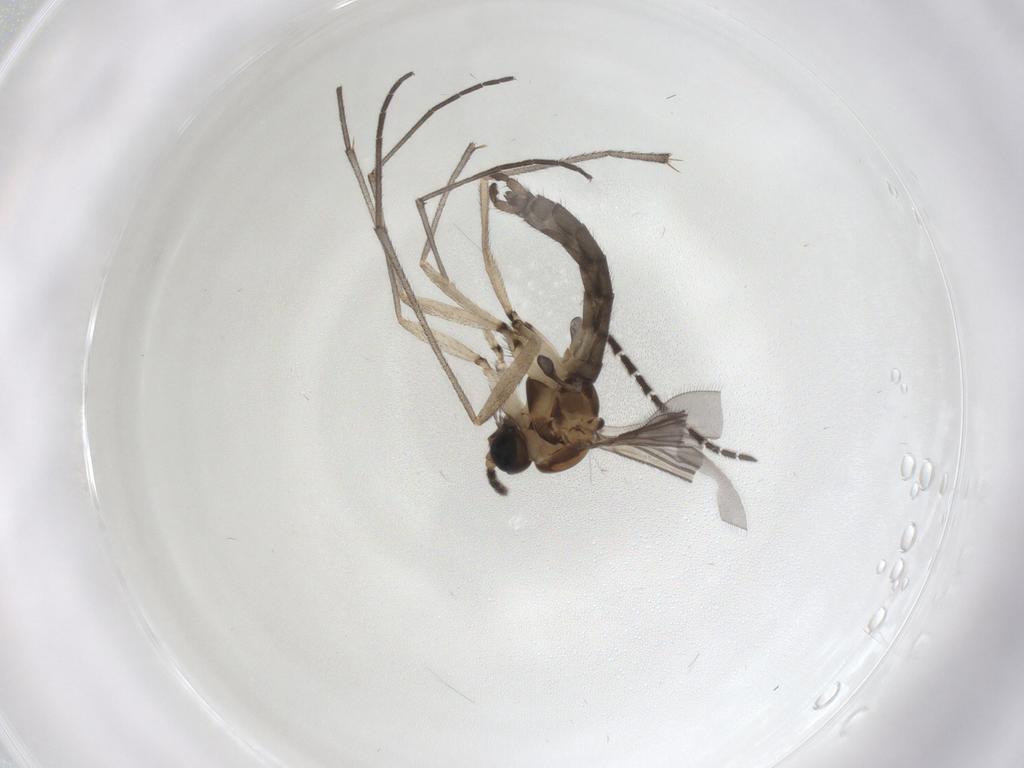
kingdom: Animalia
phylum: Arthropoda
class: Insecta
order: Diptera
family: Sciaridae
